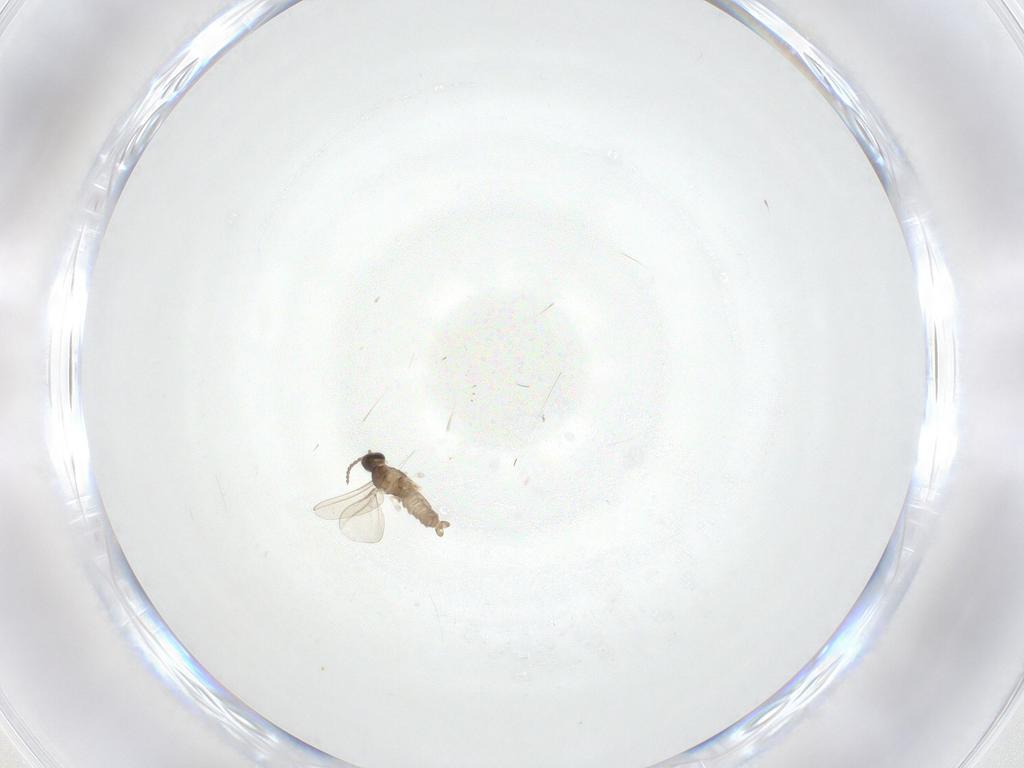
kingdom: Animalia
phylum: Arthropoda
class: Insecta
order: Diptera
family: Cecidomyiidae
